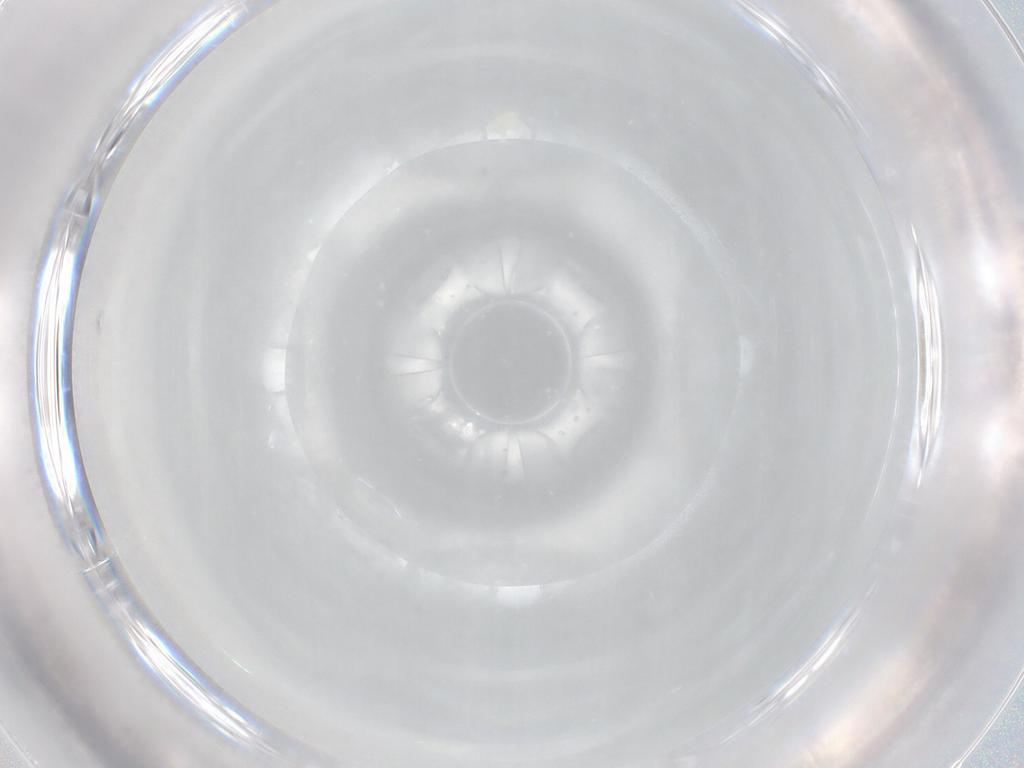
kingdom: Animalia
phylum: Arthropoda
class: Arachnida
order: Trombidiformes
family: Eupodidae
